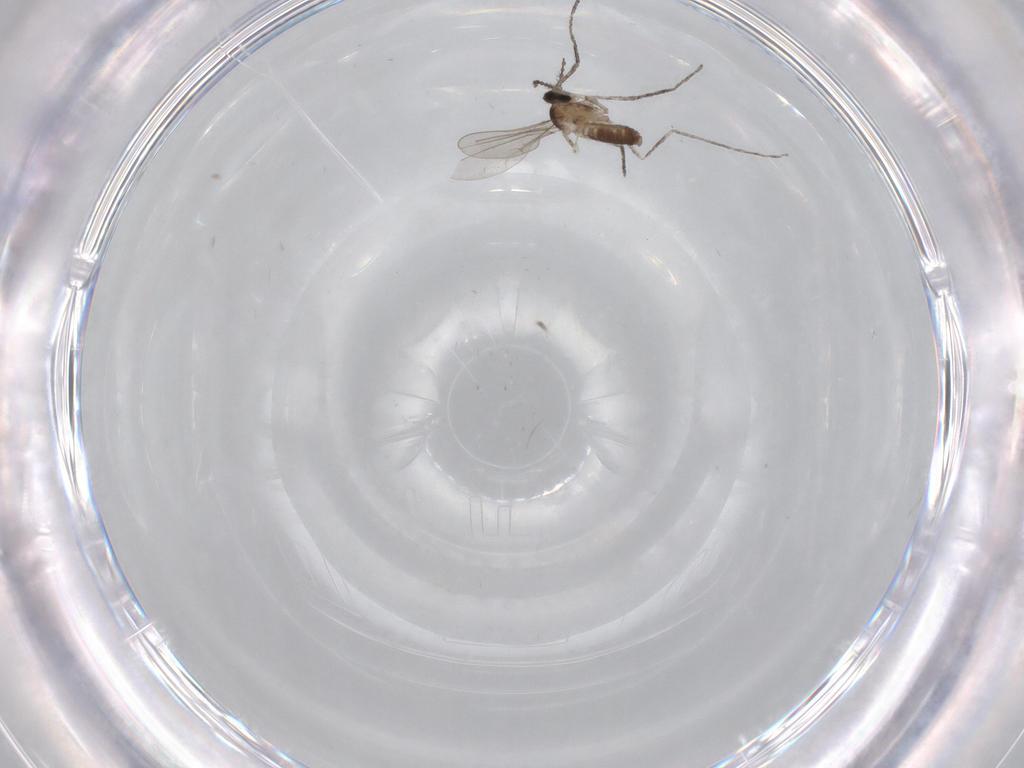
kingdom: Animalia
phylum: Arthropoda
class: Insecta
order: Diptera
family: Cecidomyiidae
